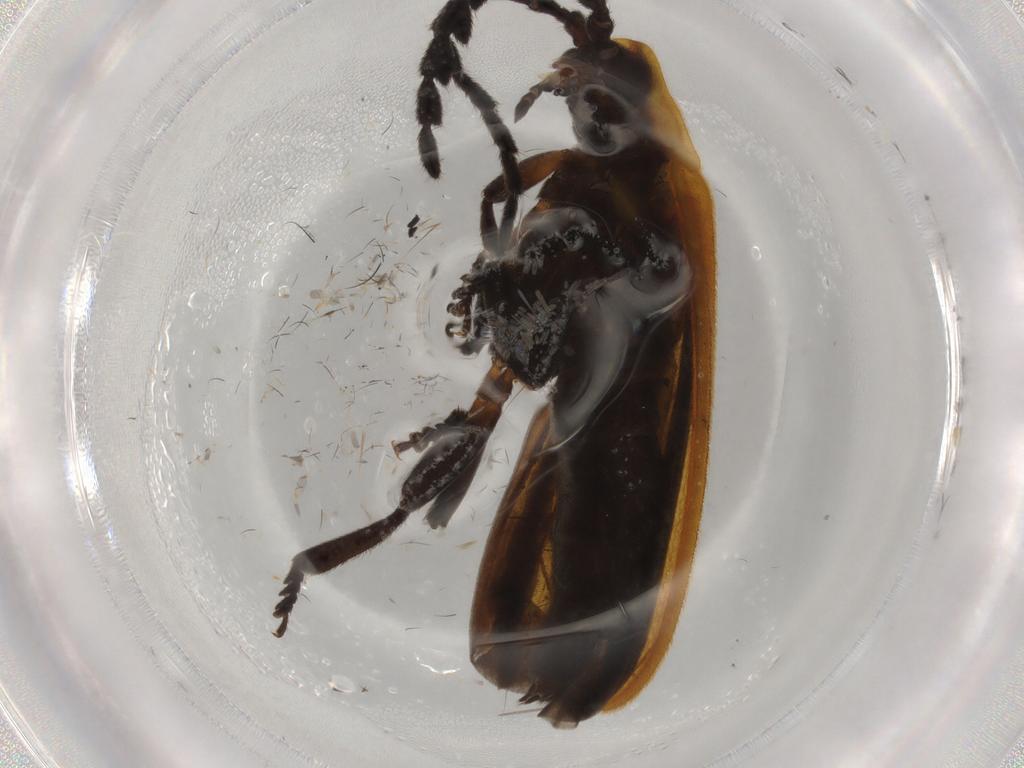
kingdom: Animalia
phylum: Arthropoda
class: Insecta
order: Coleoptera
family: Lycidae
